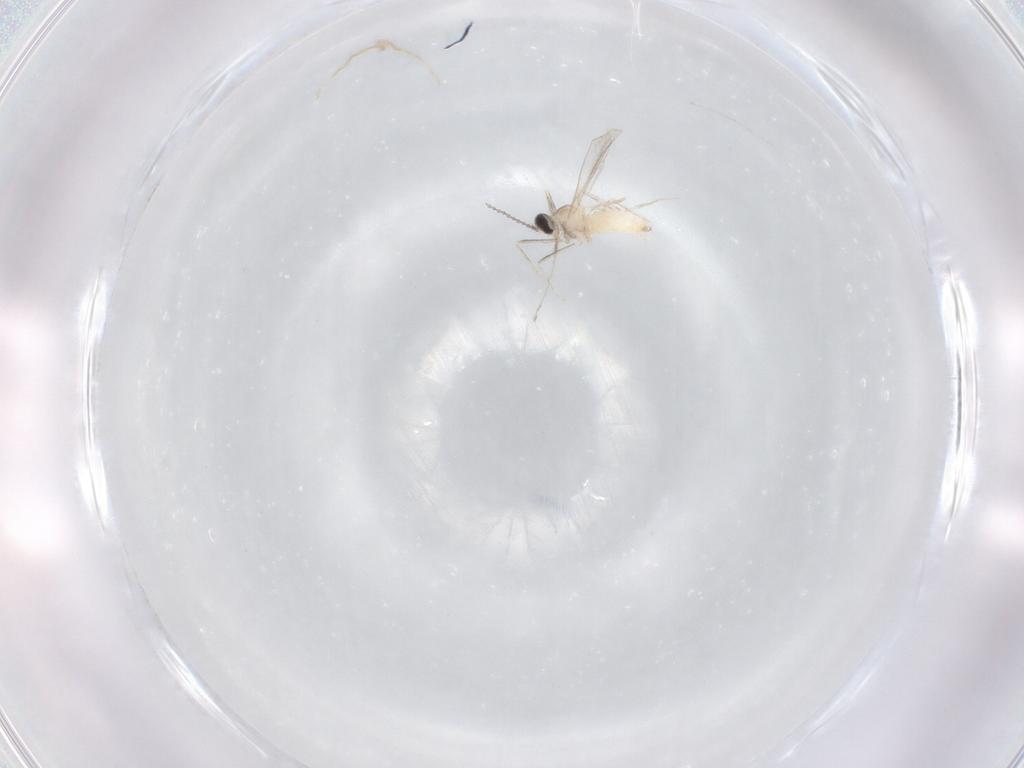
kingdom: Animalia
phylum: Arthropoda
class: Insecta
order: Diptera
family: Cecidomyiidae
